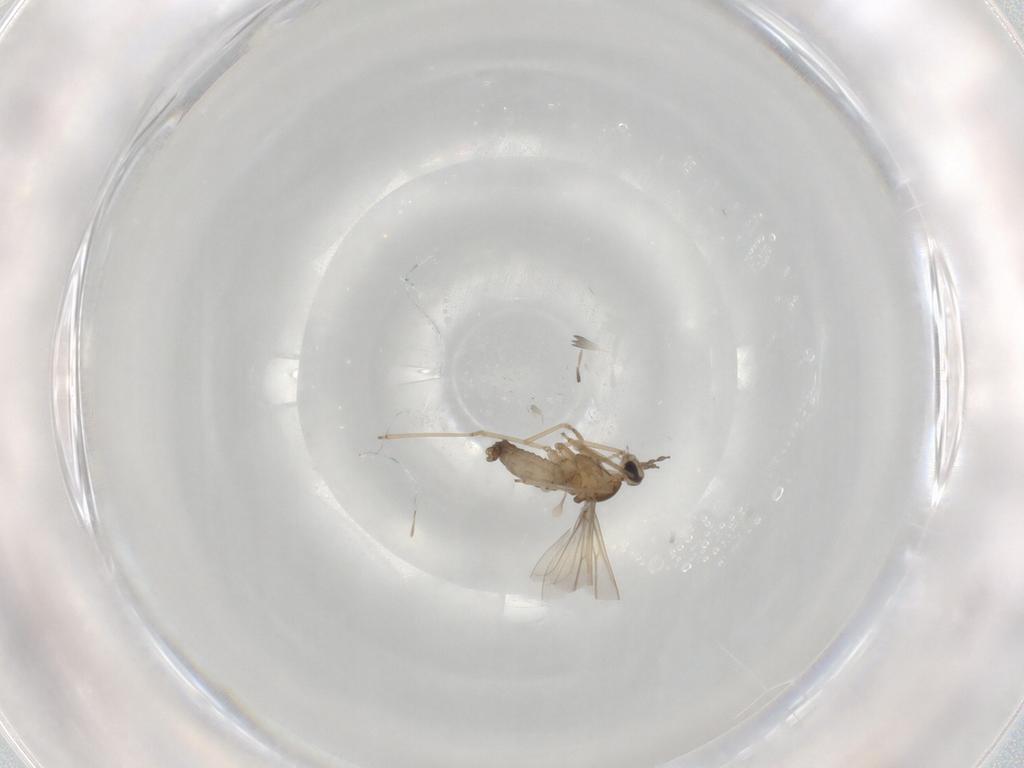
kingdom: Animalia
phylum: Arthropoda
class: Insecta
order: Diptera
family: Cecidomyiidae
